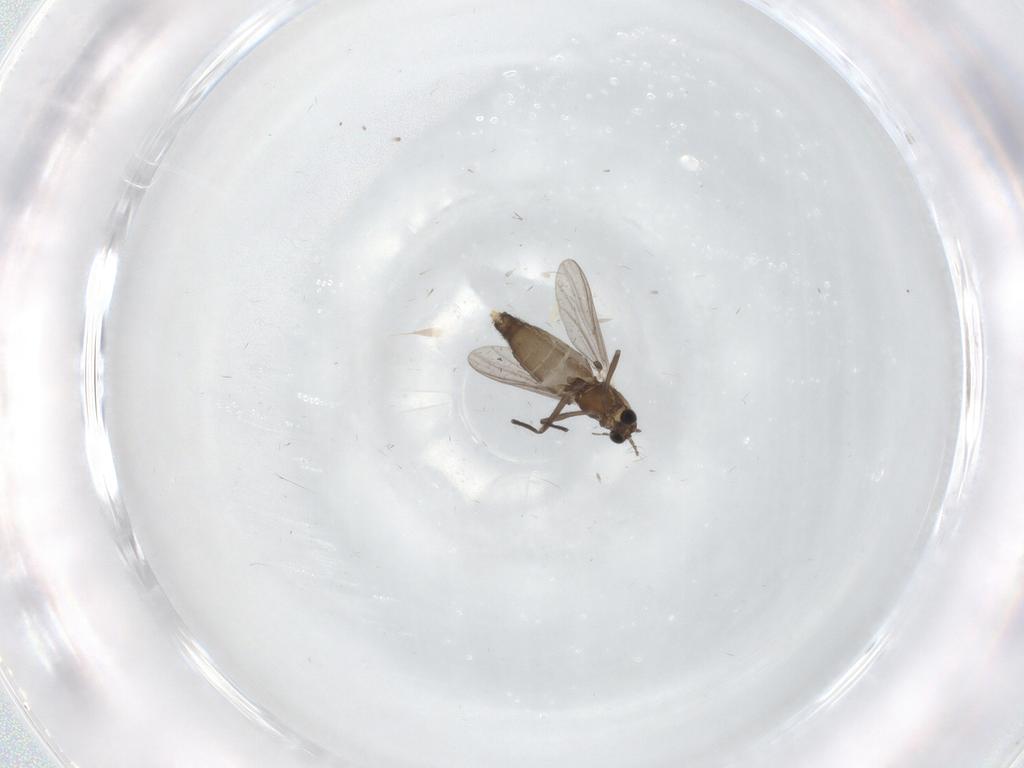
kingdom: Animalia
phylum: Arthropoda
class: Insecta
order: Diptera
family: Chironomidae
